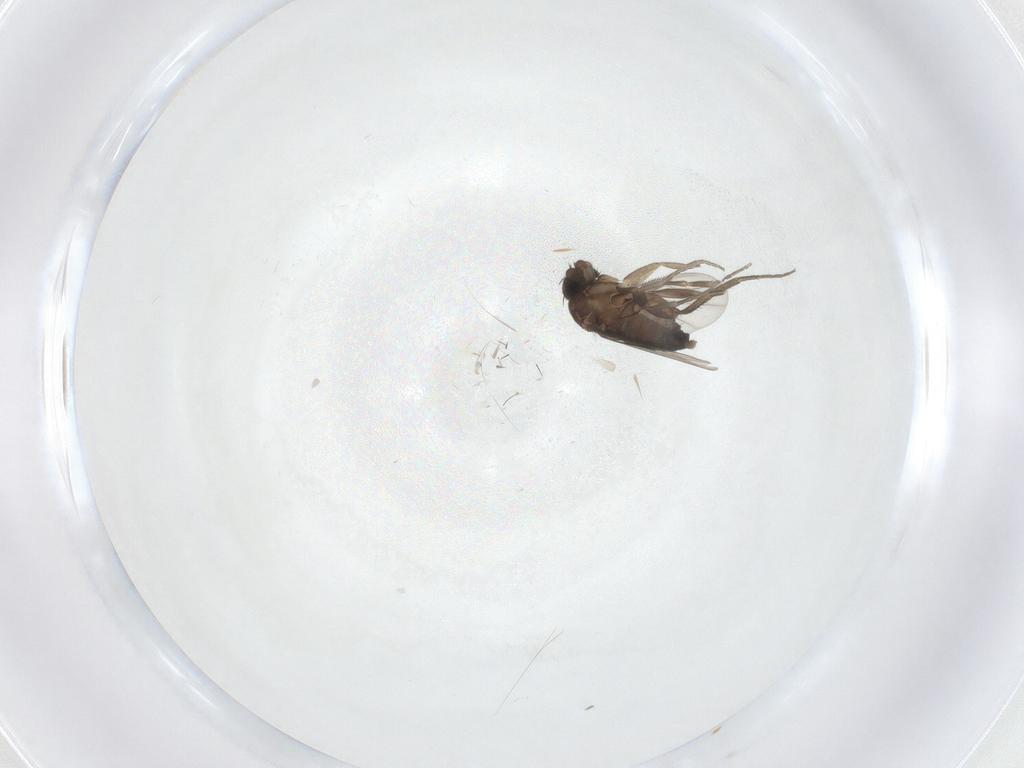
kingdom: Animalia
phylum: Arthropoda
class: Insecta
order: Diptera
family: Phoridae
